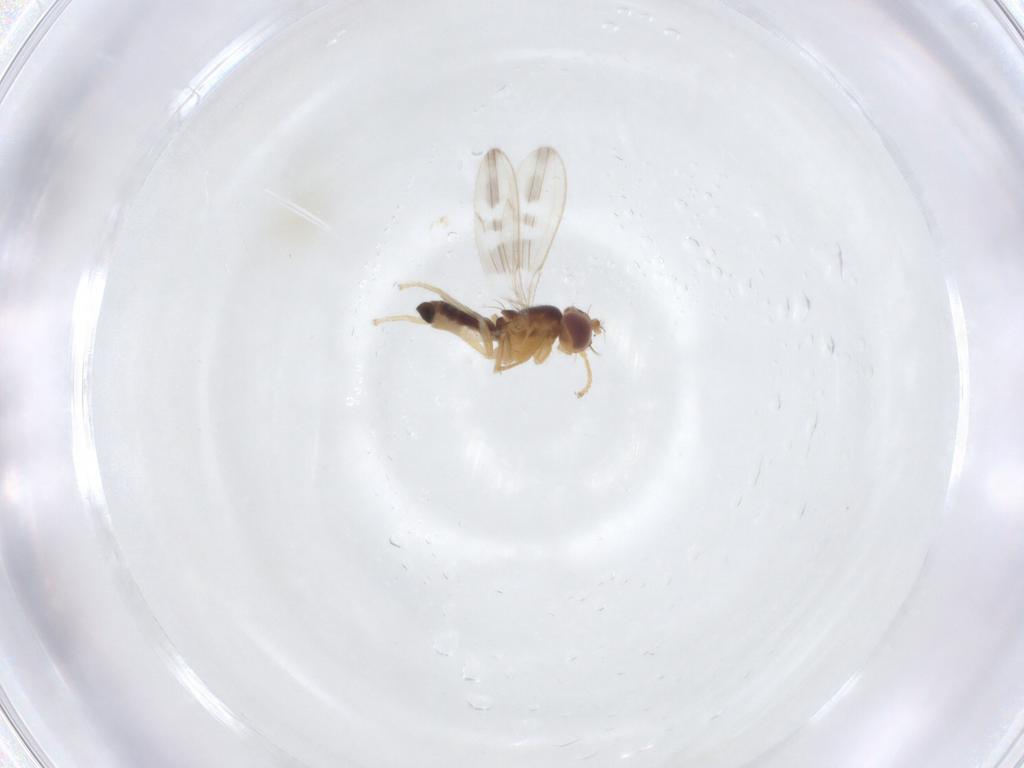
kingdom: Animalia
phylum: Arthropoda
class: Insecta
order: Diptera
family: Periscelididae
